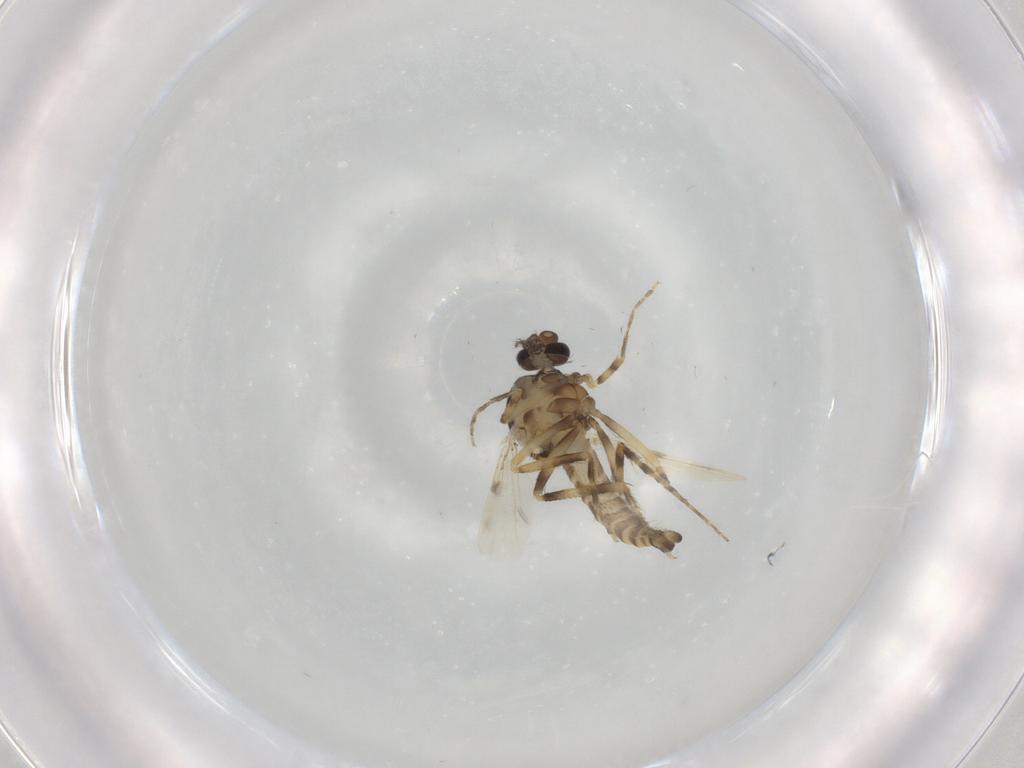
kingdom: Animalia
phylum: Arthropoda
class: Insecta
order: Diptera
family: Ceratopogonidae
